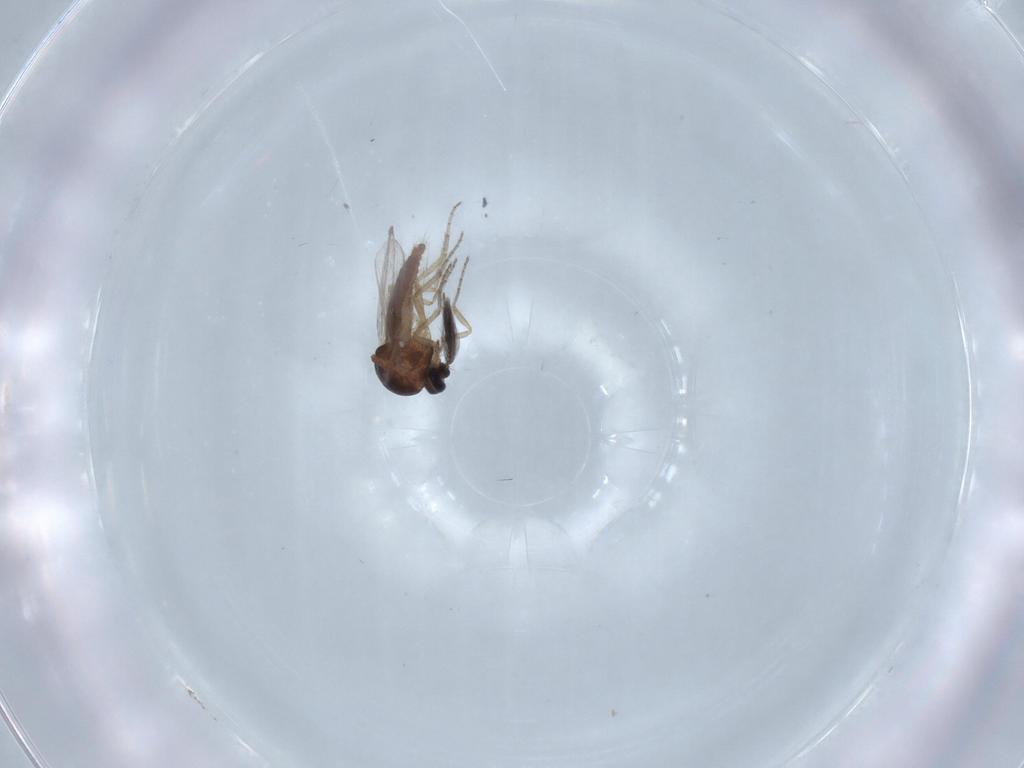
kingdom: Animalia
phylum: Arthropoda
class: Insecta
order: Diptera
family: Ceratopogonidae
